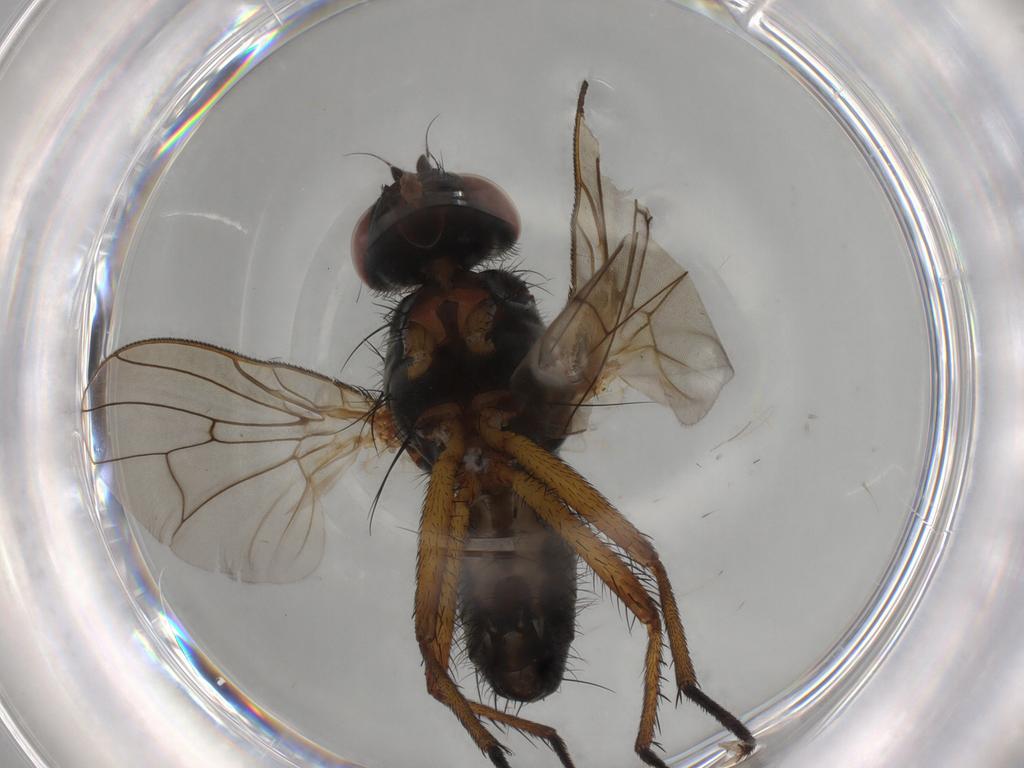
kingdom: Animalia
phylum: Arthropoda
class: Insecta
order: Diptera
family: Anthomyiidae
